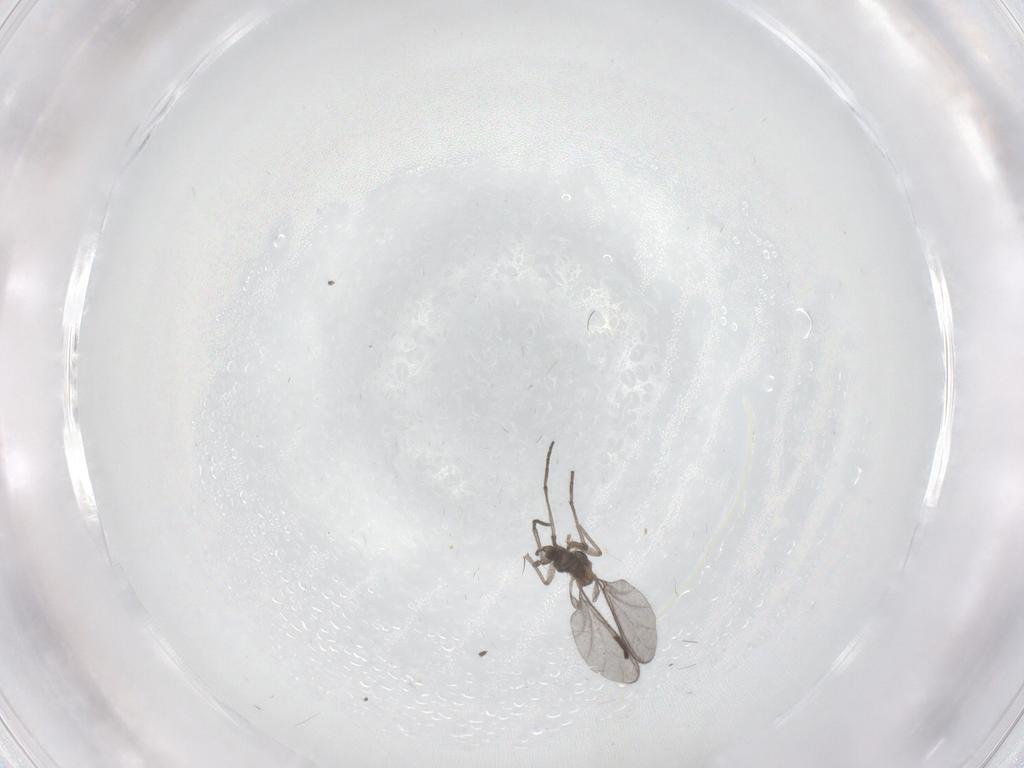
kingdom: Animalia
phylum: Arthropoda
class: Insecta
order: Diptera
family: Sciaridae
